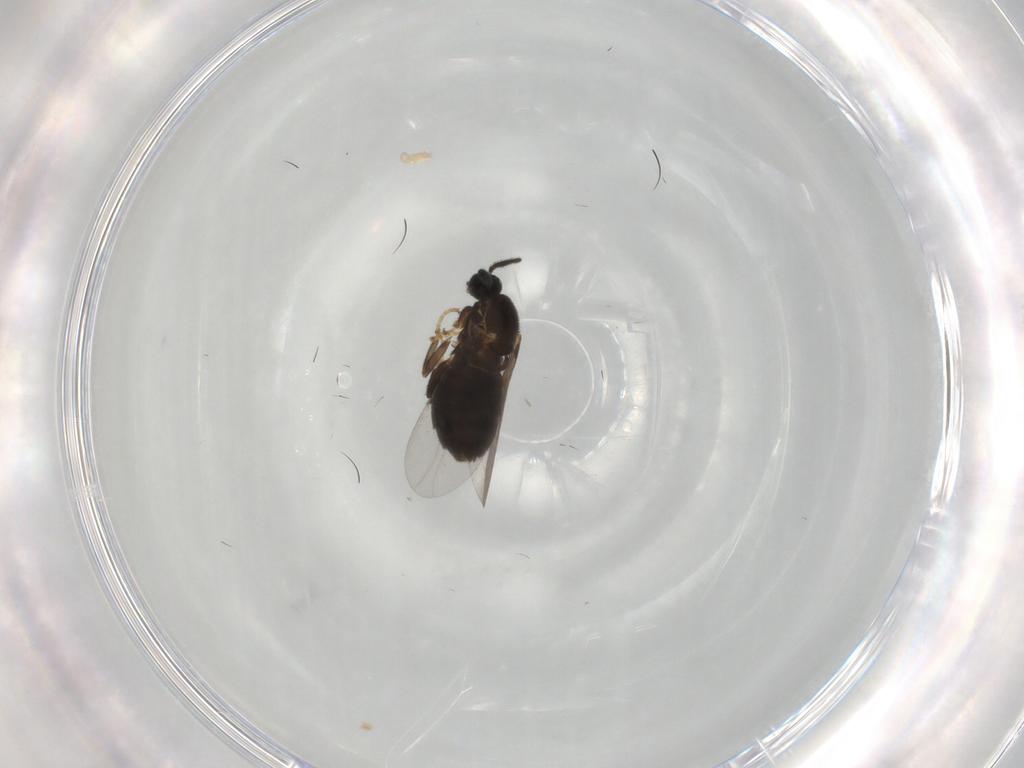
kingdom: Animalia
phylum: Arthropoda
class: Insecta
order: Diptera
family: Scatopsidae
